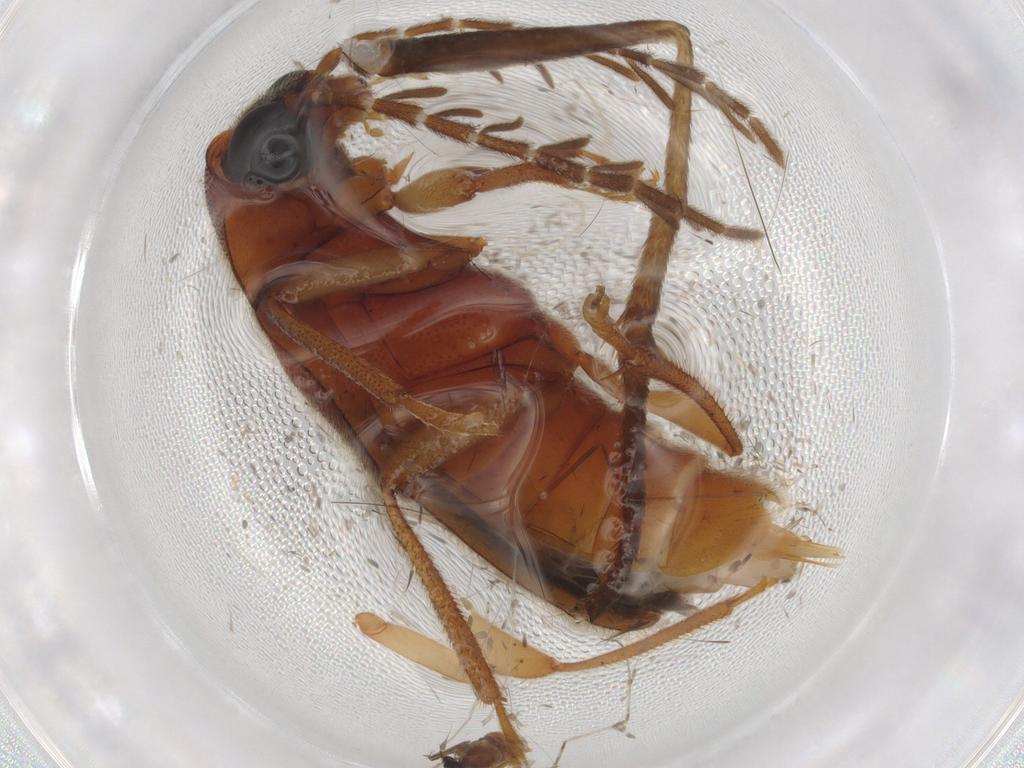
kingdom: Animalia
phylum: Arthropoda
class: Insecta
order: Coleoptera
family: Ptilodactylidae
